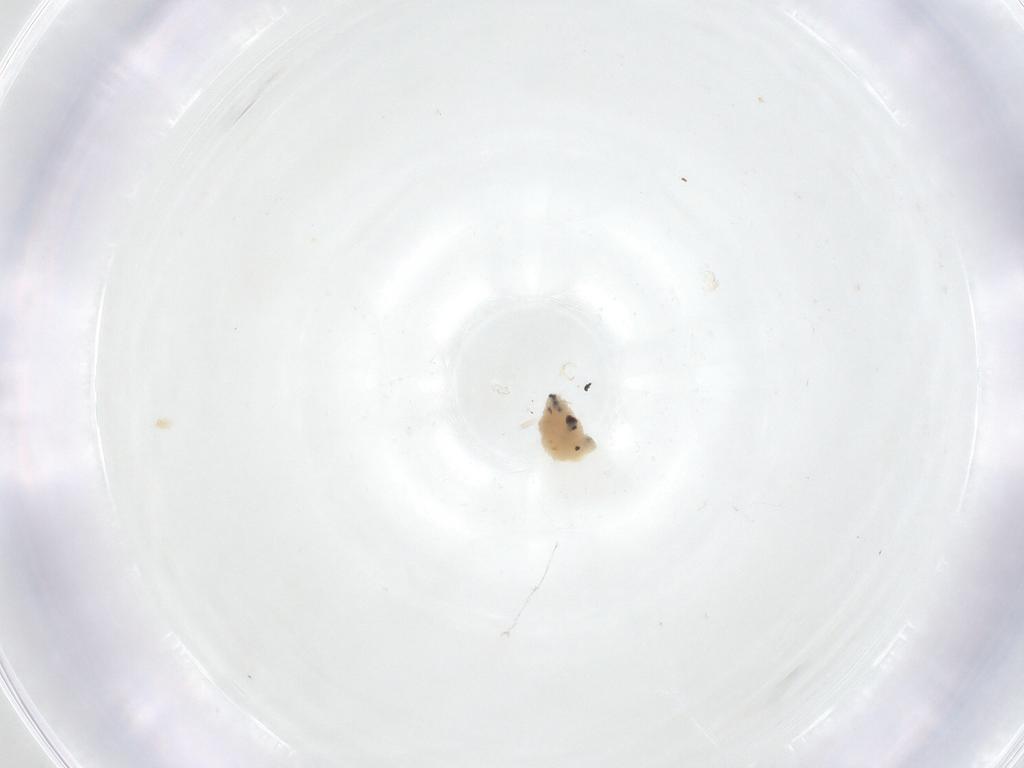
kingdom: Animalia
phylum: Arthropoda
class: Insecta
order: Diptera
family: Fergusoninidae
